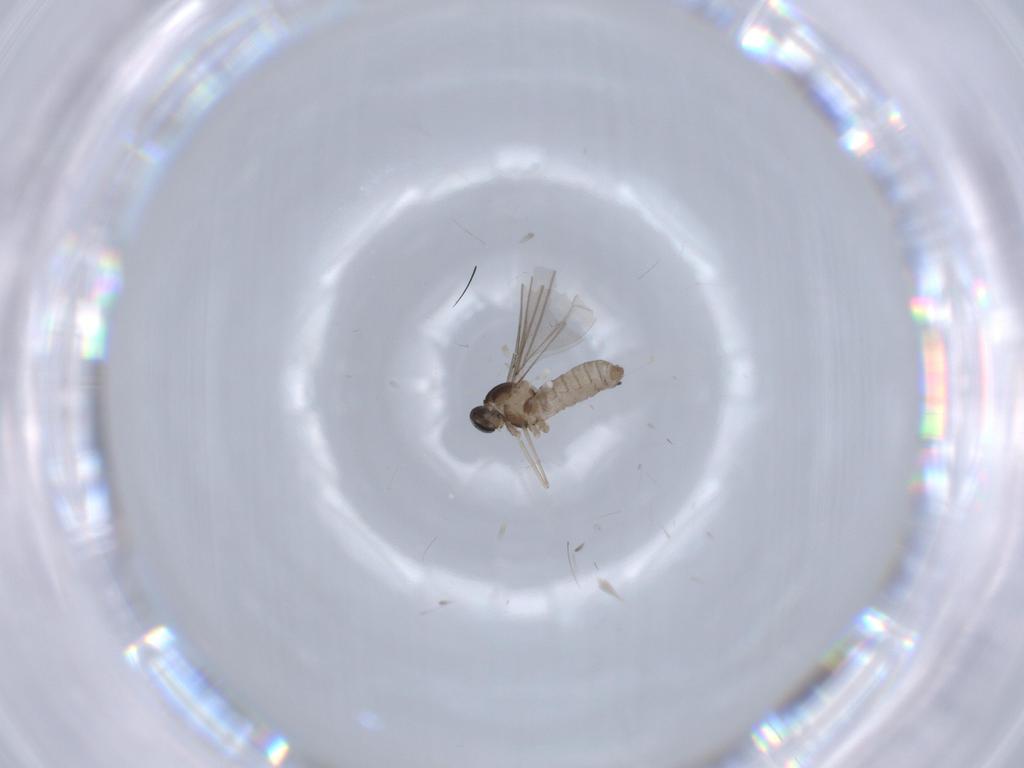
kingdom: Animalia
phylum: Arthropoda
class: Insecta
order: Diptera
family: Cecidomyiidae
